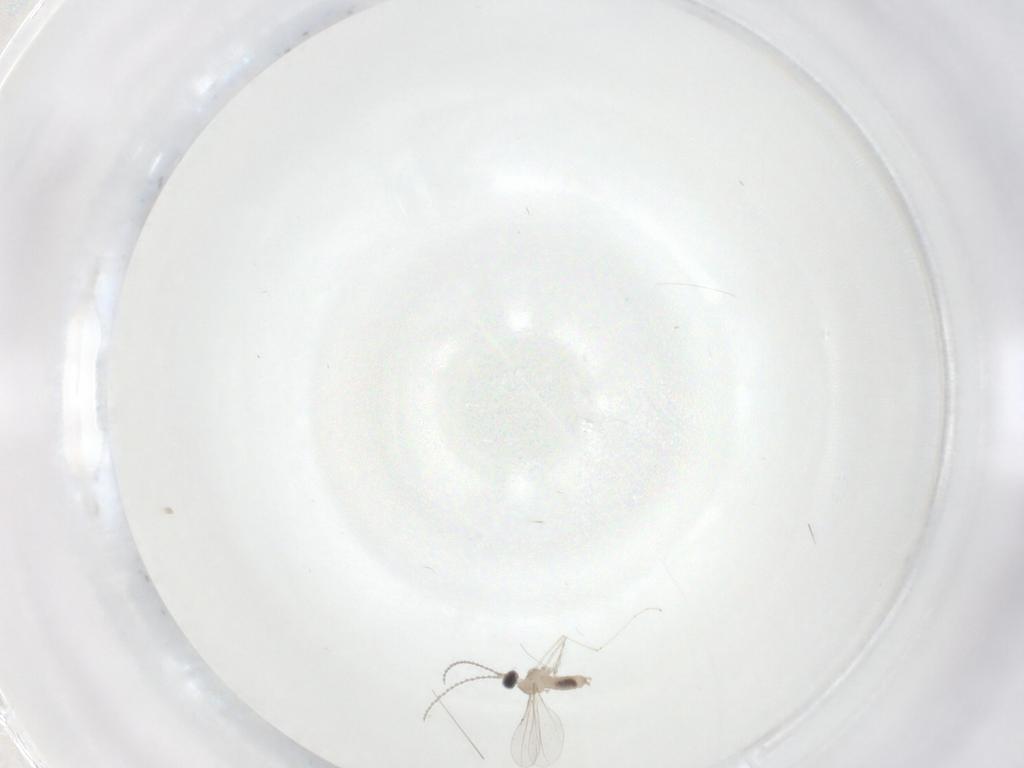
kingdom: Animalia
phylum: Arthropoda
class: Insecta
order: Diptera
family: Cecidomyiidae
